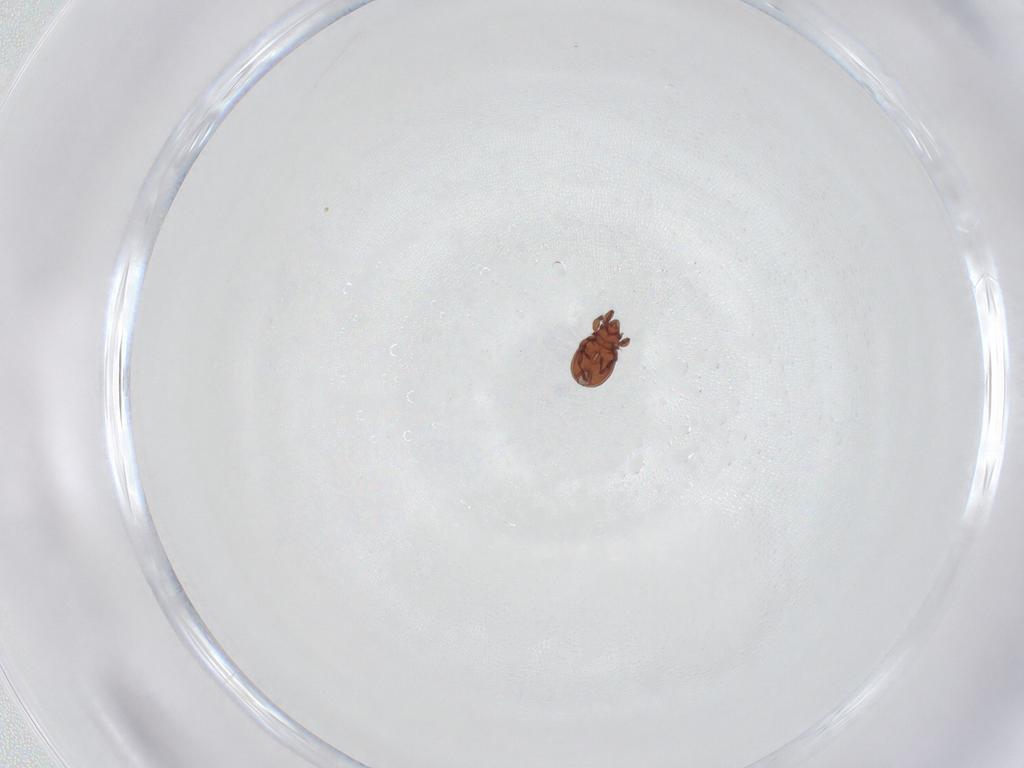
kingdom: Animalia
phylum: Arthropoda
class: Arachnida
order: Sarcoptiformes
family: Eremaeidae
